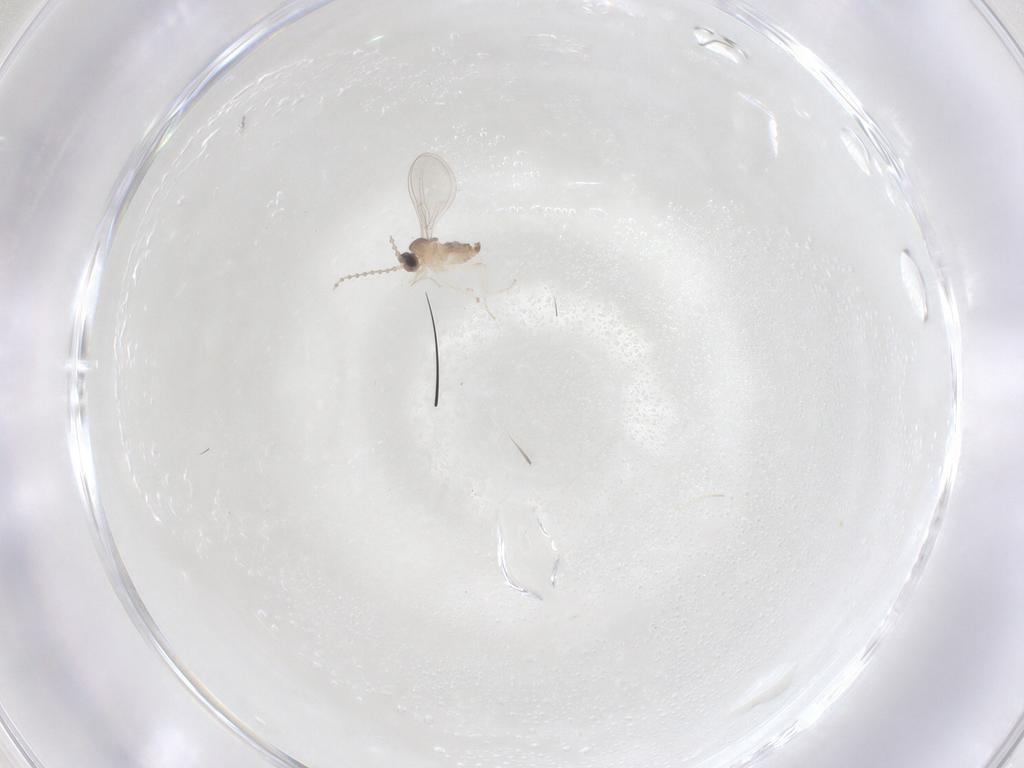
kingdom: Animalia
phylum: Arthropoda
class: Insecta
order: Diptera
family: Cecidomyiidae
